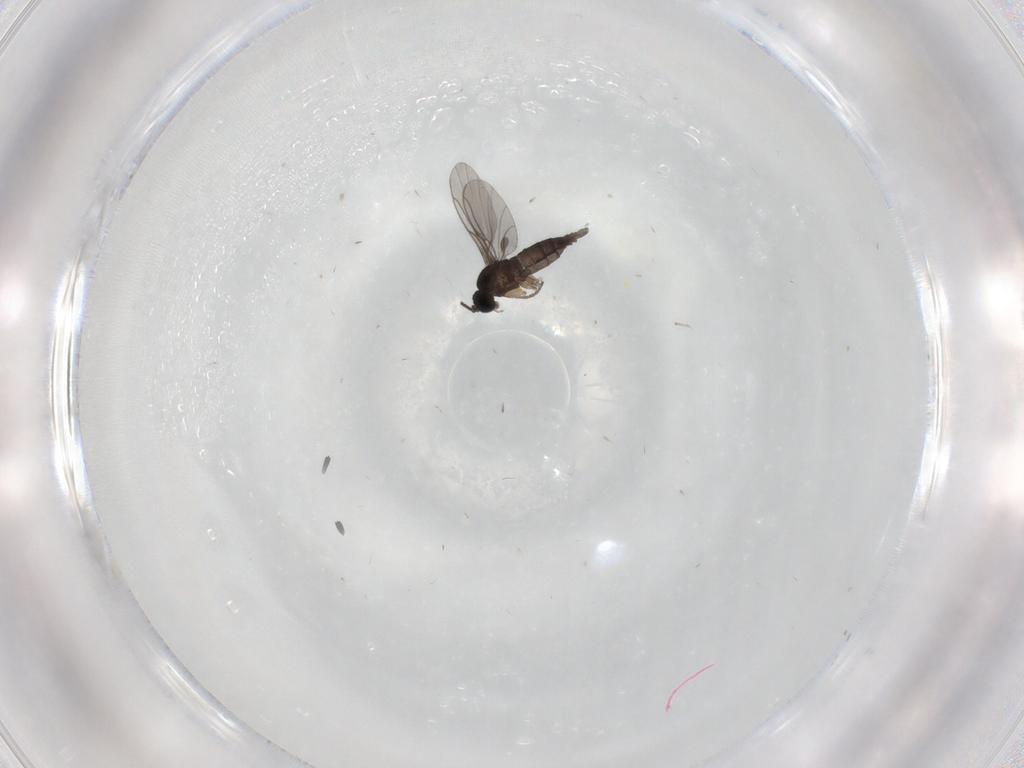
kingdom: Animalia
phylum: Arthropoda
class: Insecta
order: Diptera
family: Sciaridae
